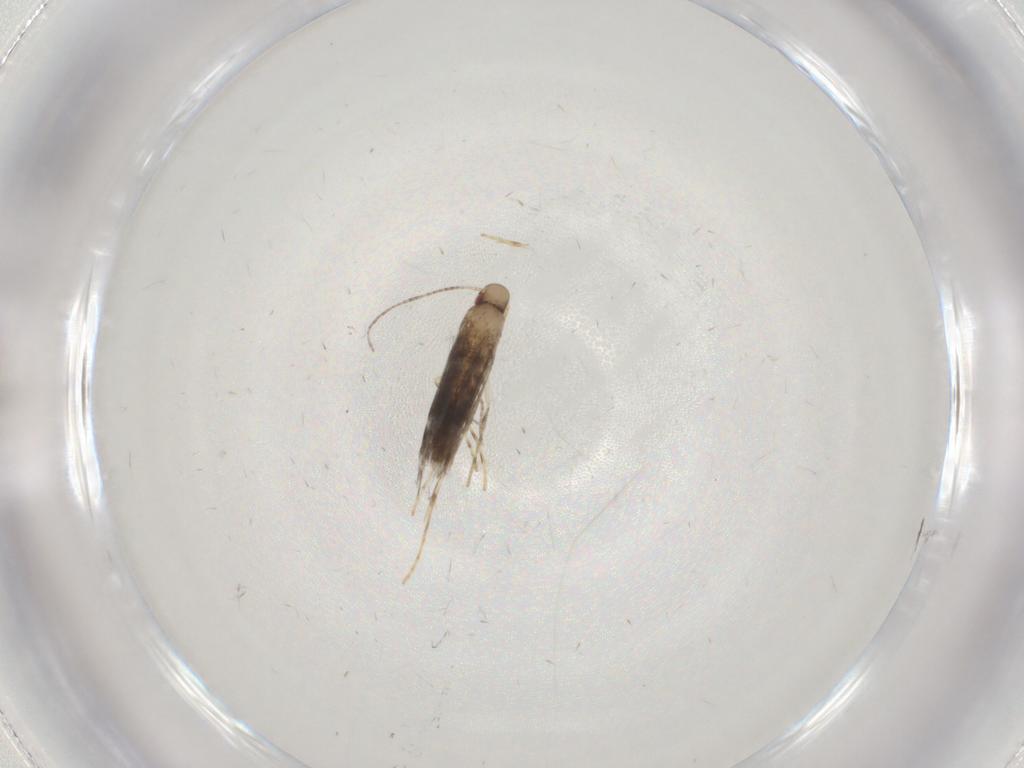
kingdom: Animalia
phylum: Arthropoda
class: Insecta
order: Lepidoptera
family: Gracillariidae
